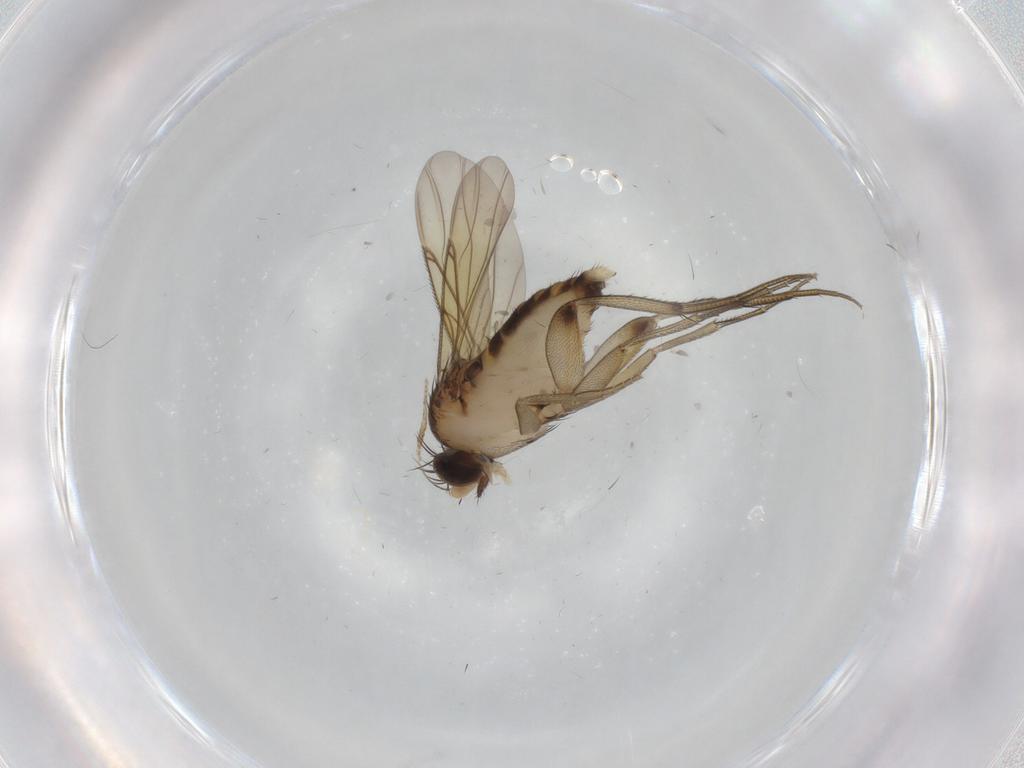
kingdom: Animalia
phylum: Arthropoda
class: Insecta
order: Diptera
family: Phoridae
